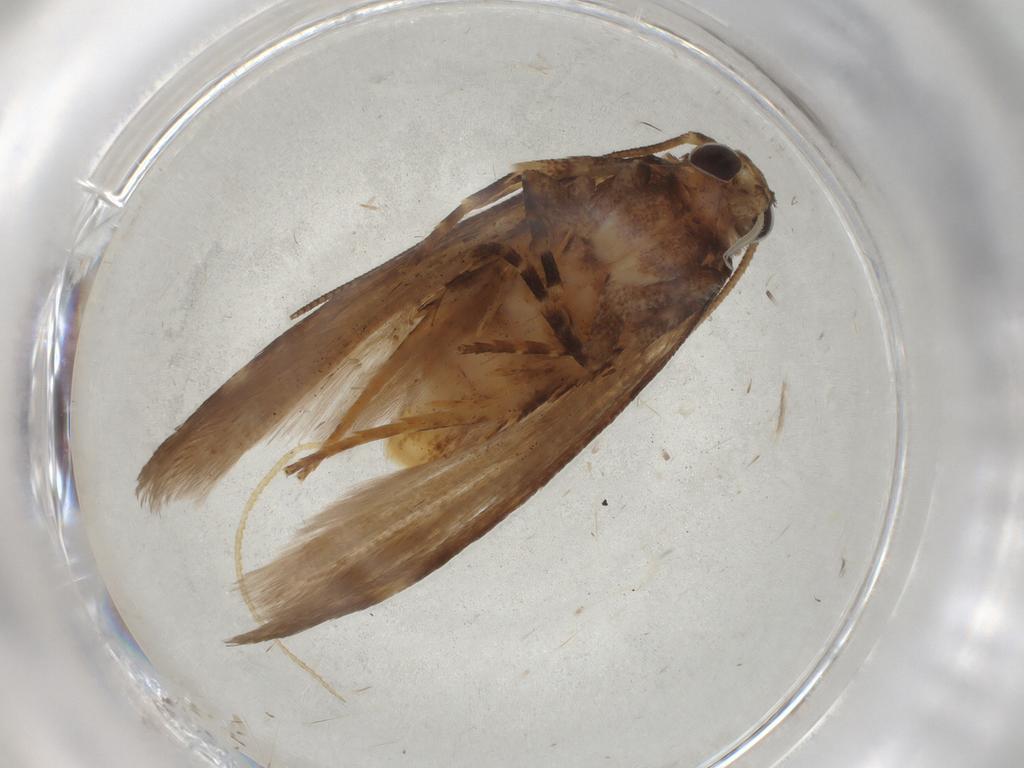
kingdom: Animalia
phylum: Arthropoda
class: Insecta
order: Lepidoptera
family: Gelechiidae
